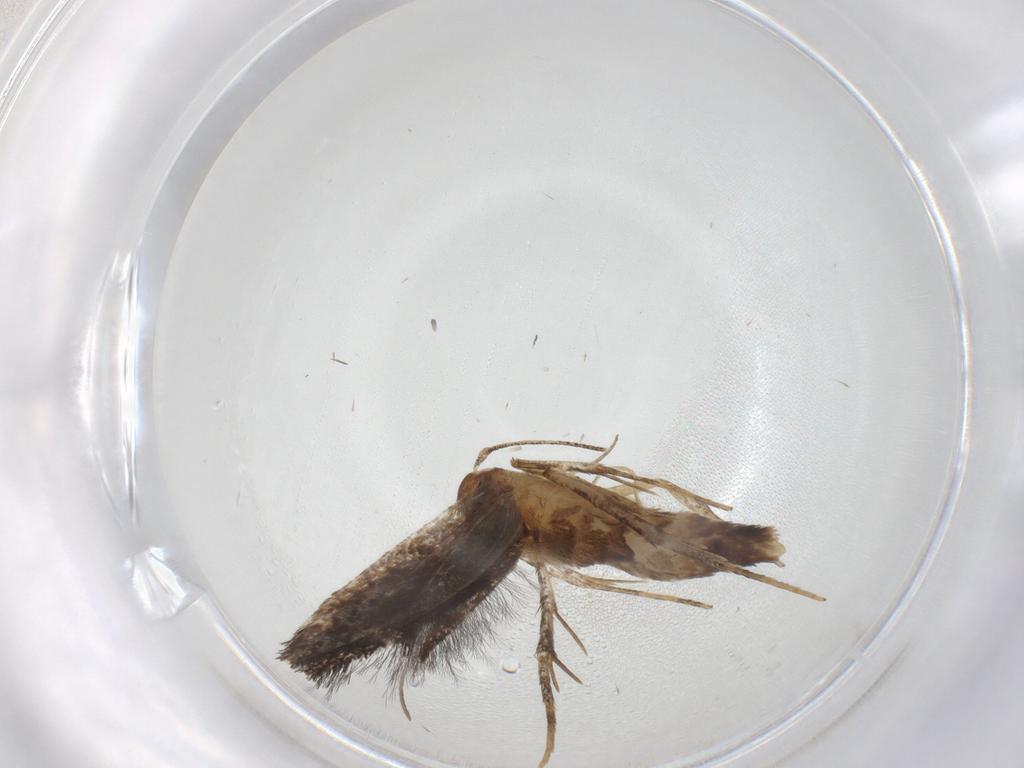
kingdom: Animalia
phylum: Arthropoda
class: Insecta
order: Lepidoptera
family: Cosmopterigidae
